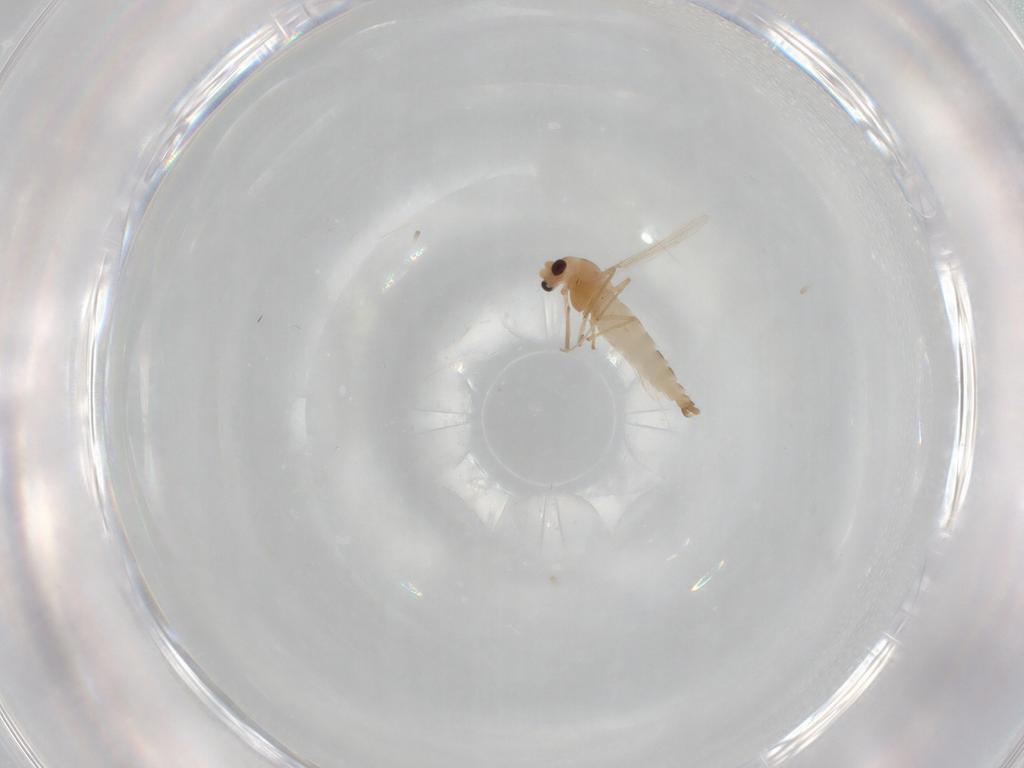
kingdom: Animalia
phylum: Arthropoda
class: Insecta
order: Diptera
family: Chironomidae
